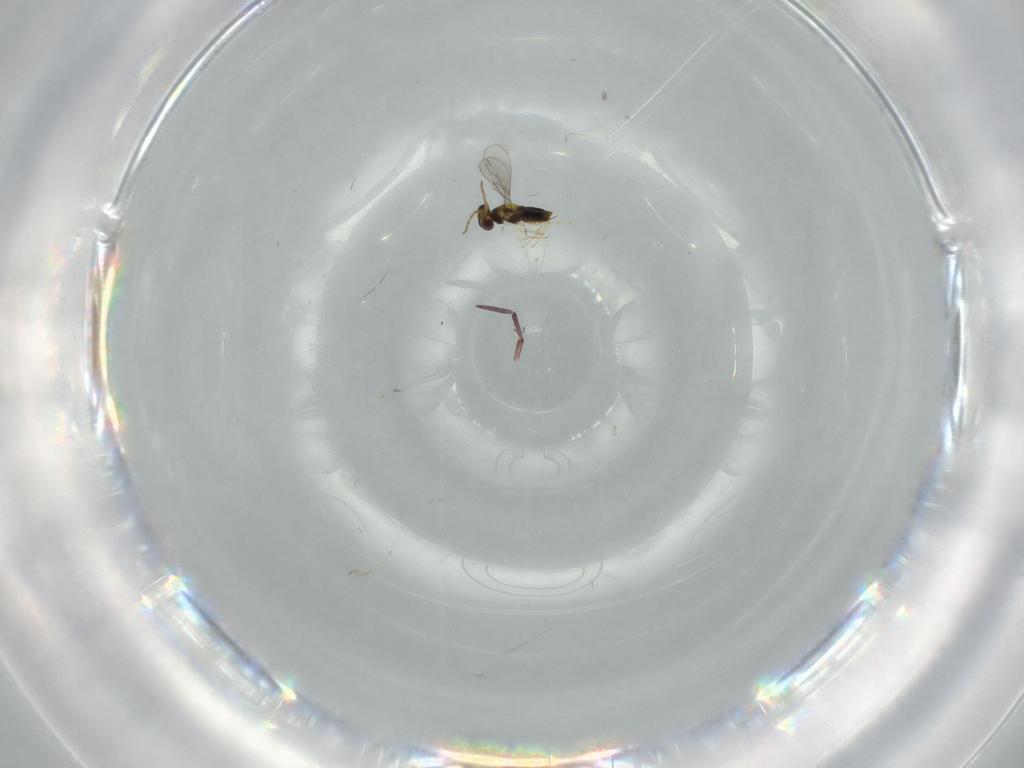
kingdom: Animalia
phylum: Arthropoda
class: Insecta
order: Hymenoptera
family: Aphelinidae
